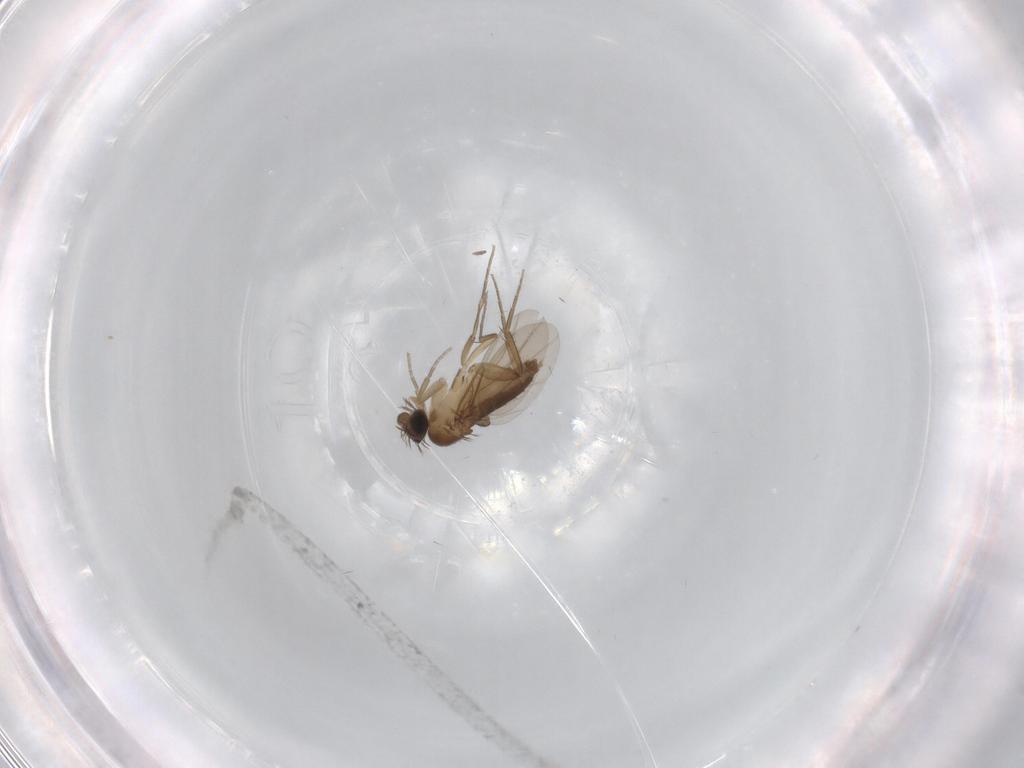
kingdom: Animalia
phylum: Arthropoda
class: Insecta
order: Diptera
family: Phoridae
